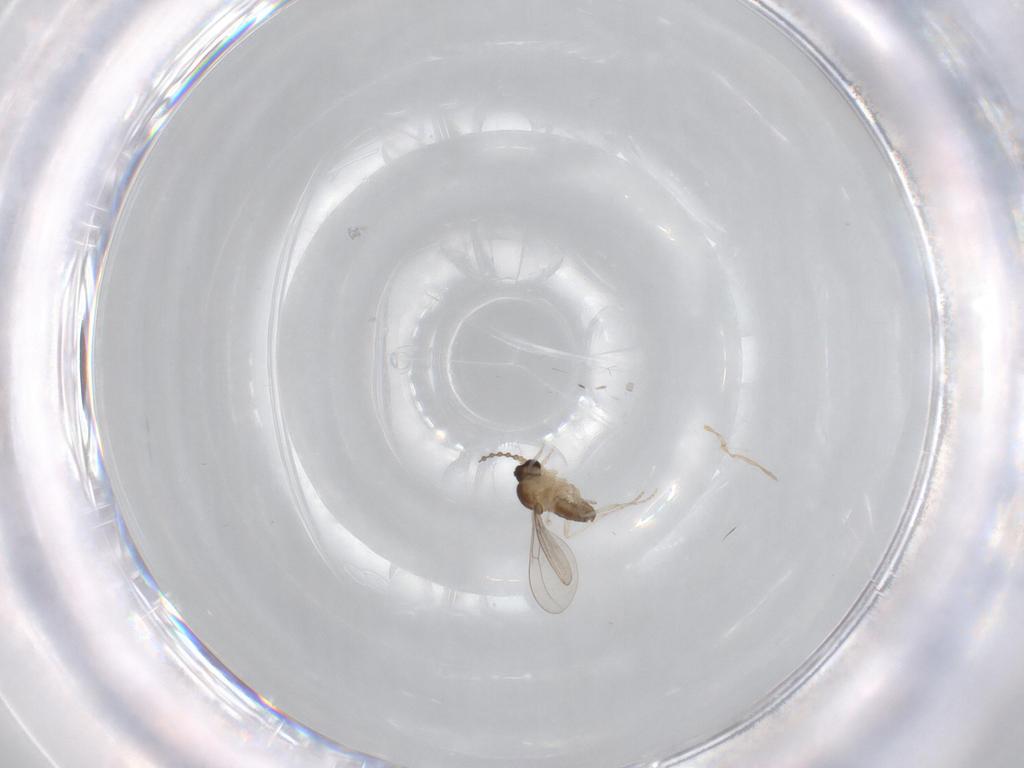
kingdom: Animalia
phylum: Arthropoda
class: Insecta
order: Diptera
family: Cecidomyiidae
